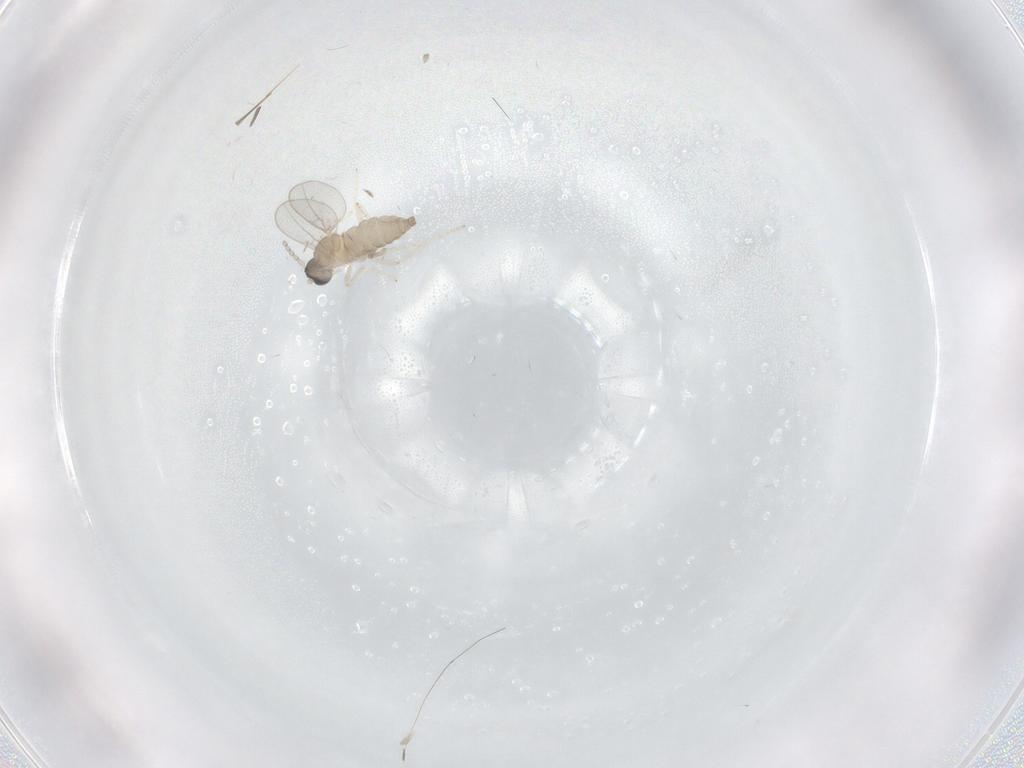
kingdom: Animalia
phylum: Arthropoda
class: Insecta
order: Diptera
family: Cecidomyiidae
